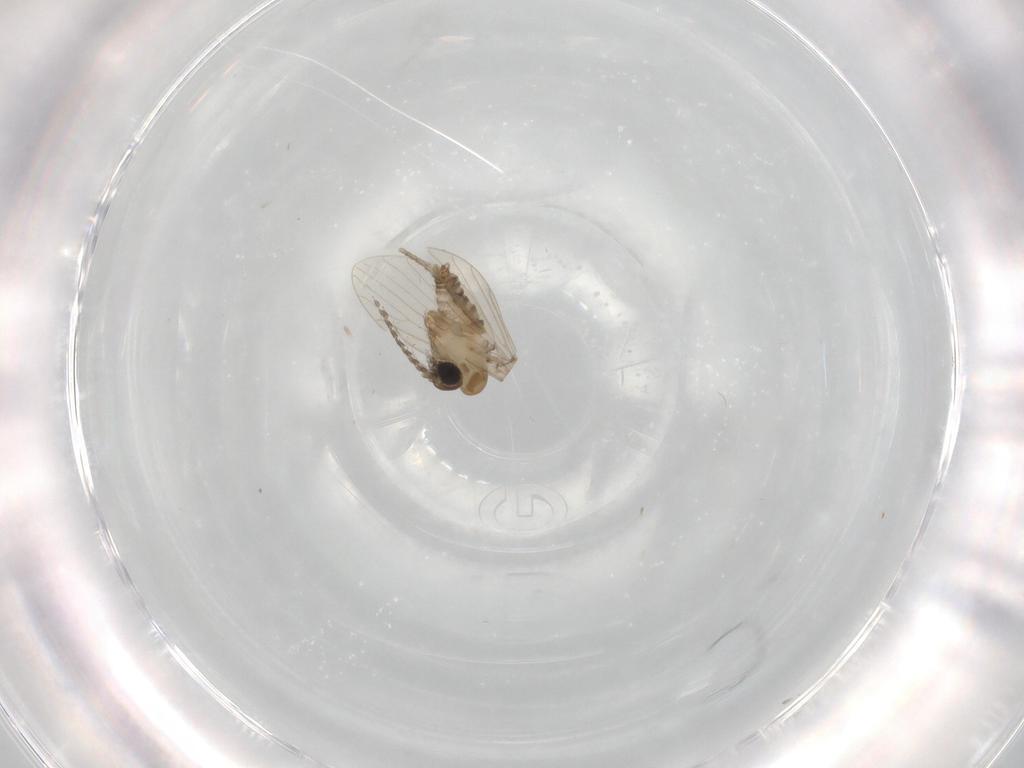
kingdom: Animalia
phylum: Arthropoda
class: Insecta
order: Diptera
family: Psychodidae
